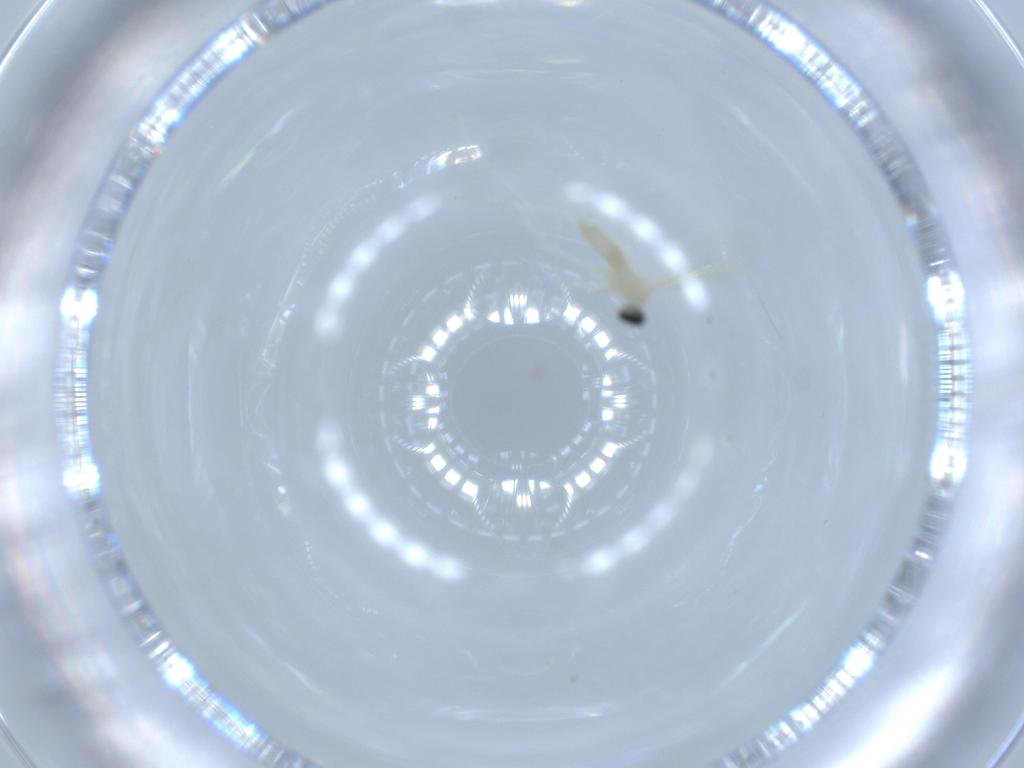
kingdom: Animalia
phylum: Arthropoda
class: Insecta
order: Diptera
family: Cecidomyiidae
